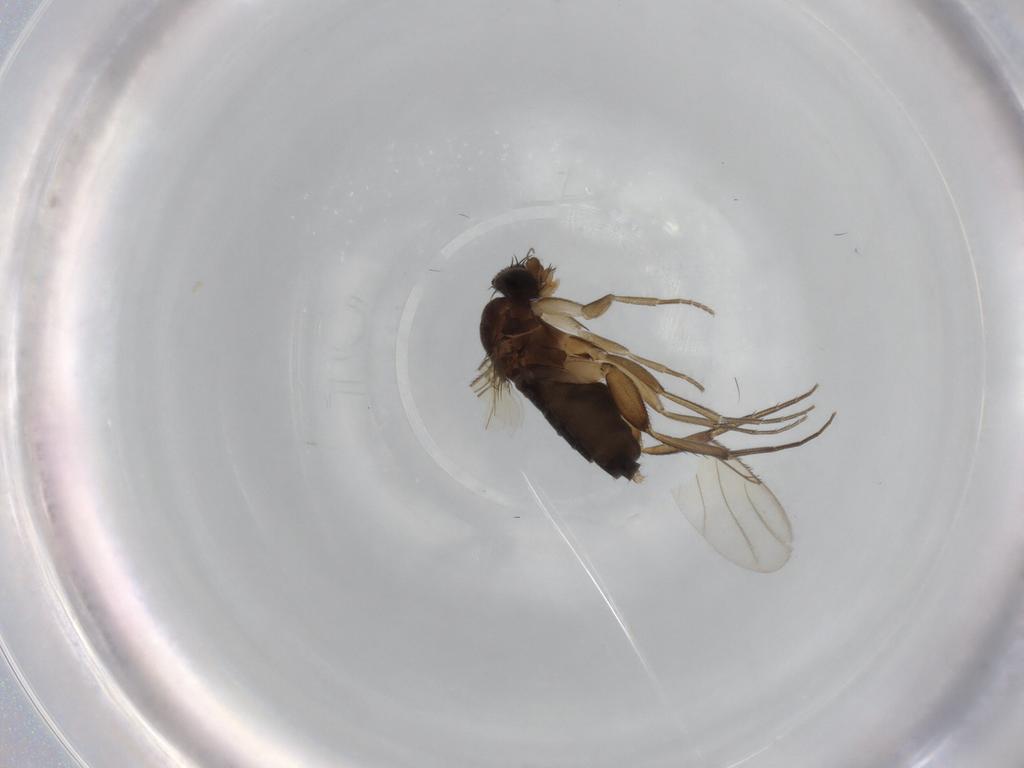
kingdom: Animalia
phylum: Arthropoda
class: Insecta
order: Diptera
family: Phoridae
